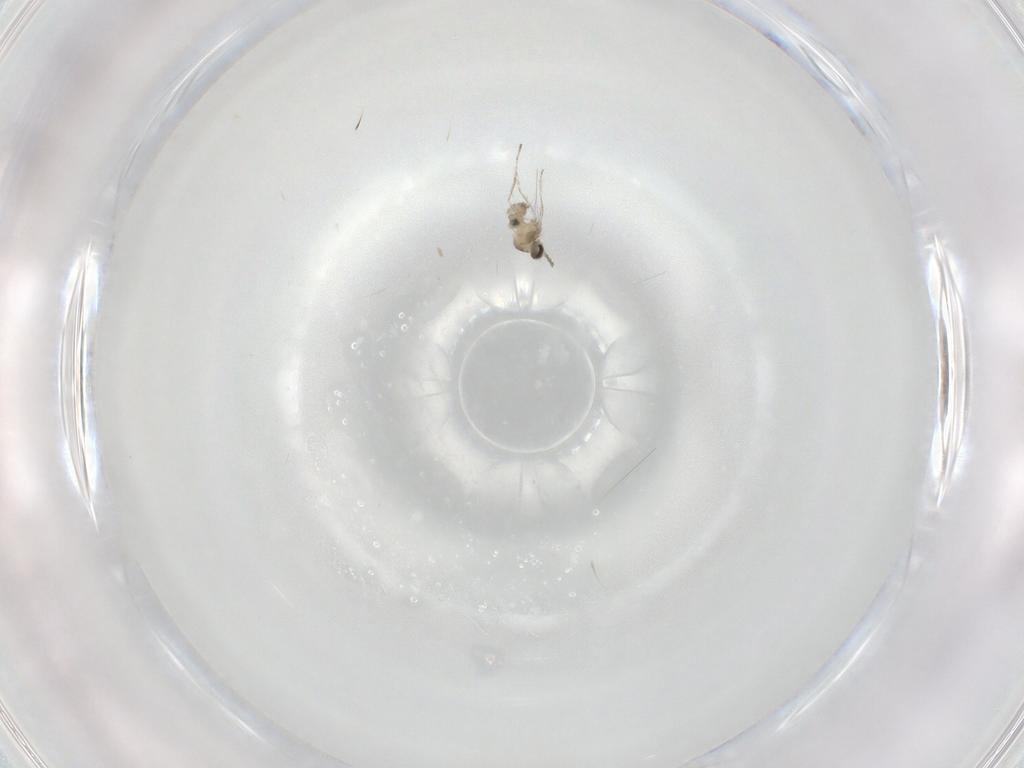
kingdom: Animalia
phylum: Arthropoda
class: Insecta
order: Diptera
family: Cecidomyiidae
